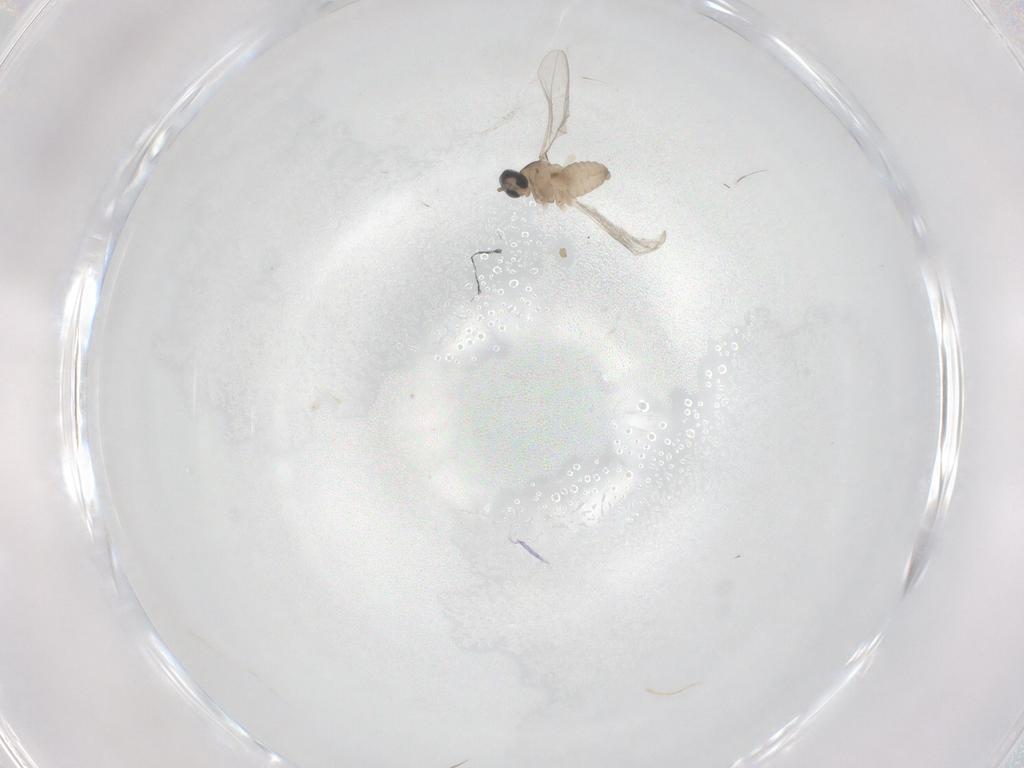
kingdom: Animalia
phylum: Arthropoda
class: Insecta
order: Diptera
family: Cecidomyiidae
